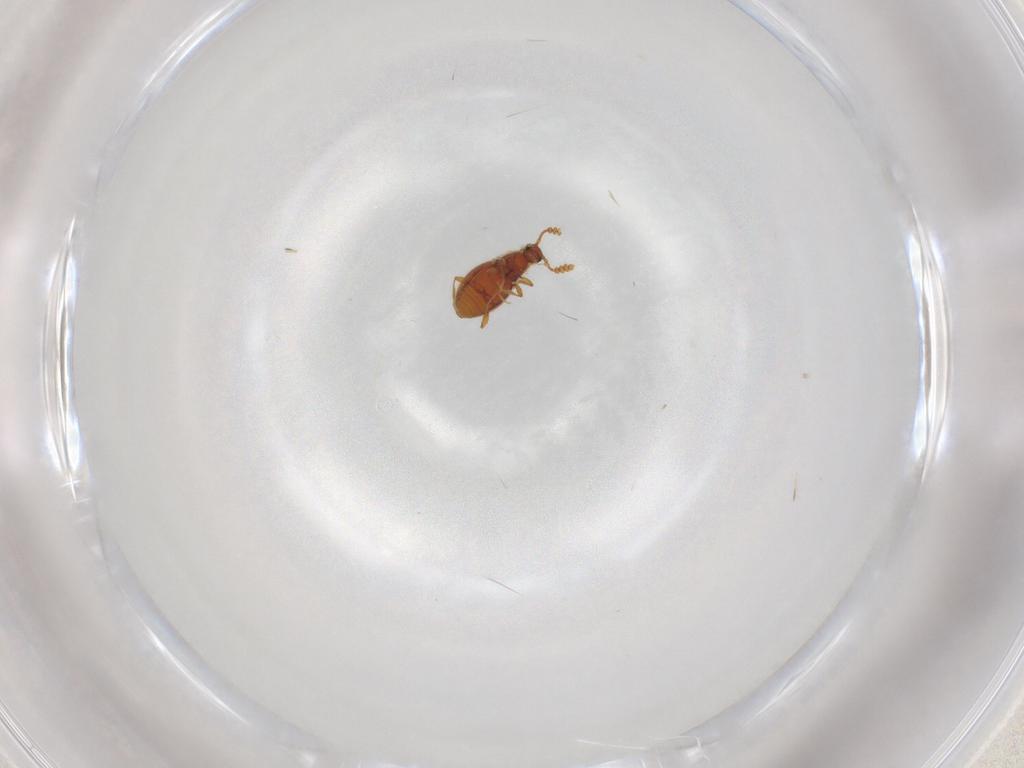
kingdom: Animalia
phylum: Arthropoda
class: Insecta
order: Coleoptera
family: Staphylinidae
